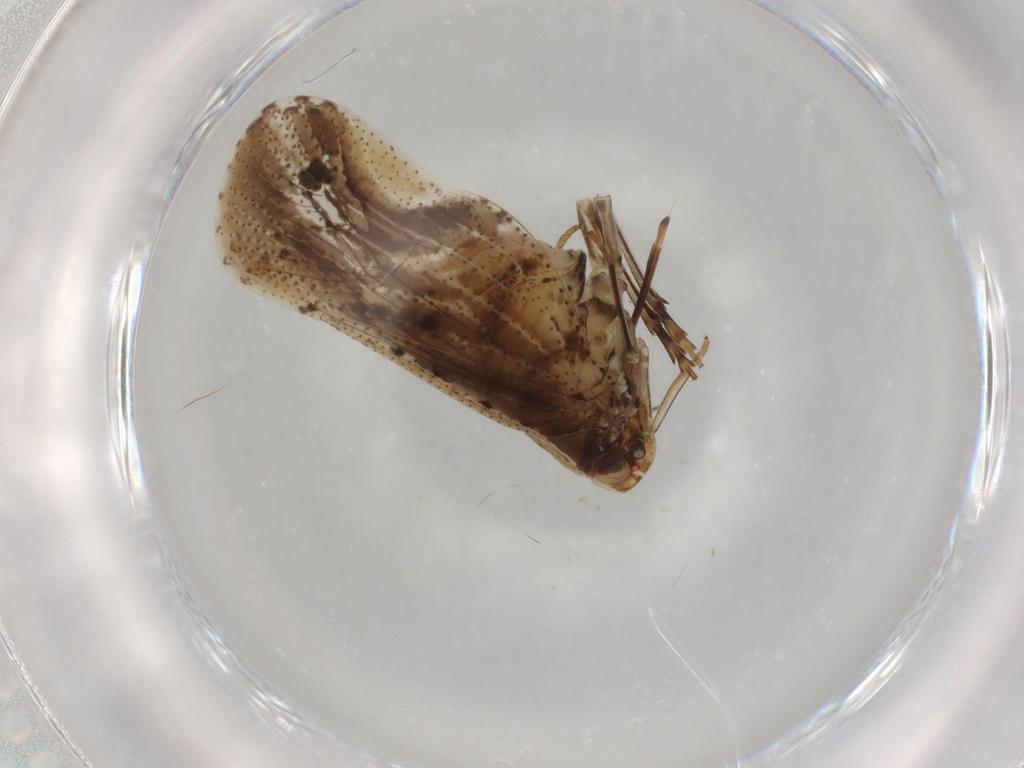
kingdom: Animalia
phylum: Arthropoda
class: Insecta
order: Hemiptera
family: Cixiidae
